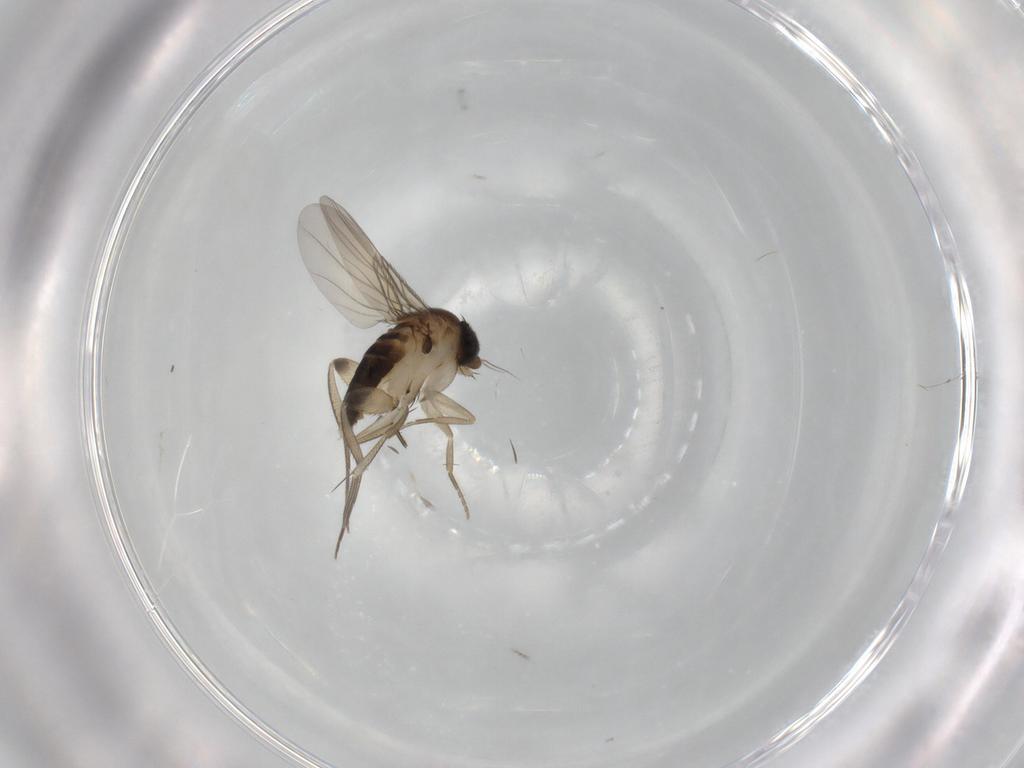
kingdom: Animalia
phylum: Arthropoda
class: Insecta
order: Diptera
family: Phoridae
